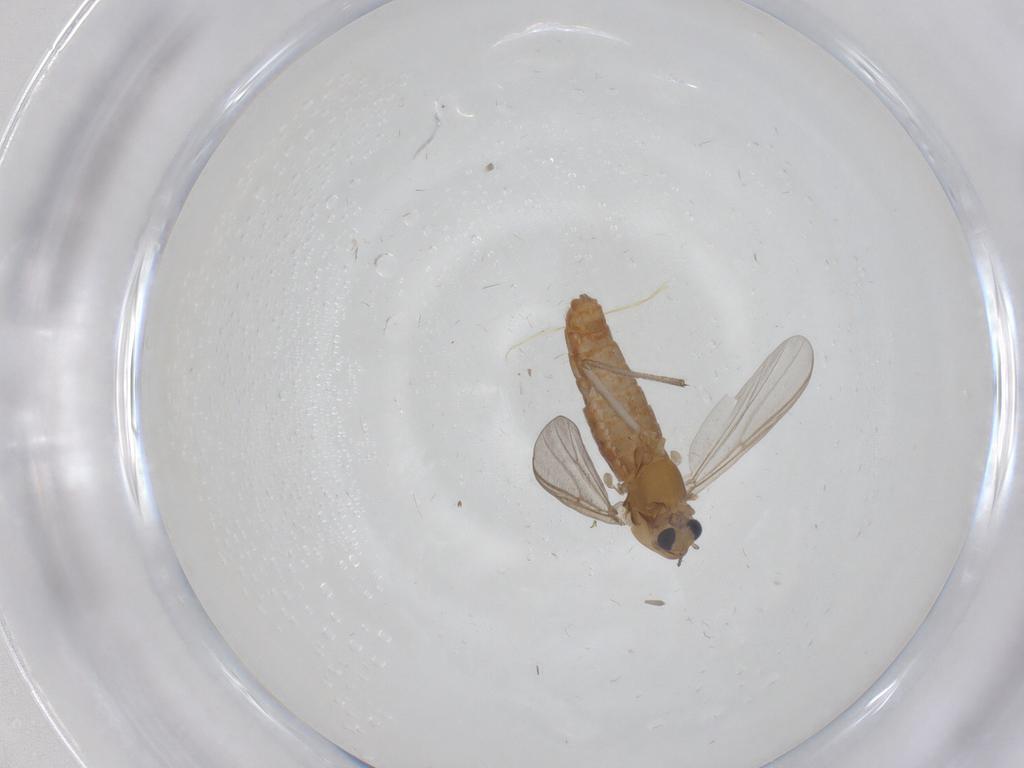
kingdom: Animalia
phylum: Arthropoda
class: Insecta
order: Diptera
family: Chironomidae
